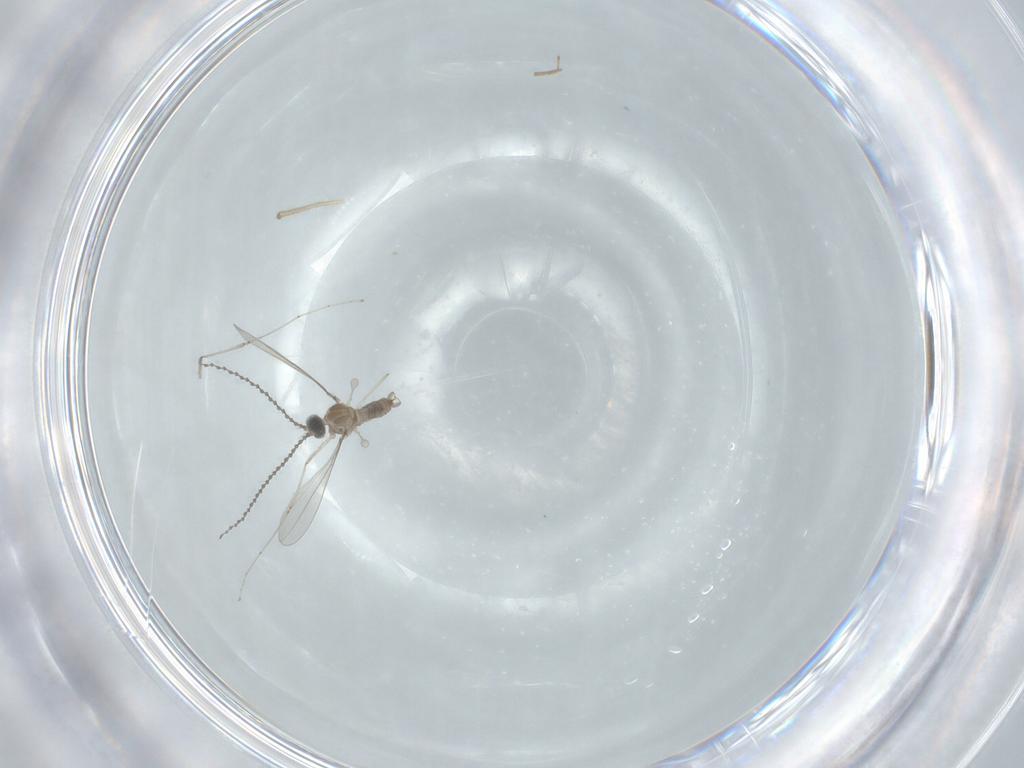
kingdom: Animalia
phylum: Arthropoda
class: Insecta
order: Diptera
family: Cecidomyiidae
